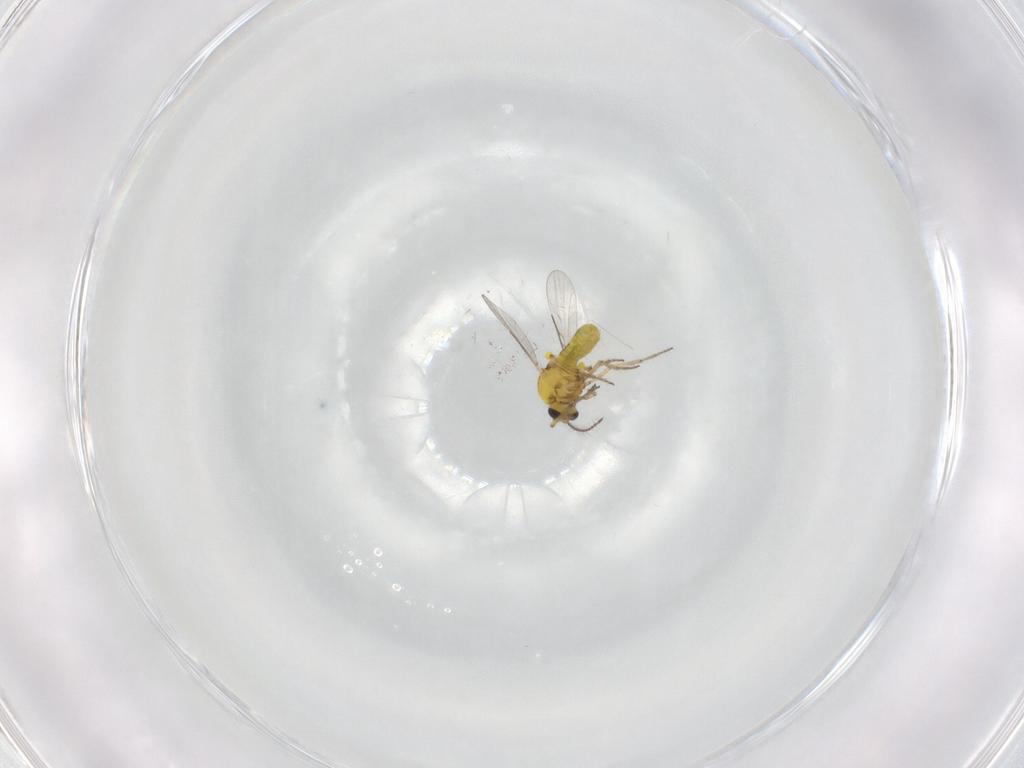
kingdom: Animalia
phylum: Arthropoda
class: Insecta
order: Diptera
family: Ceratopogonidae
